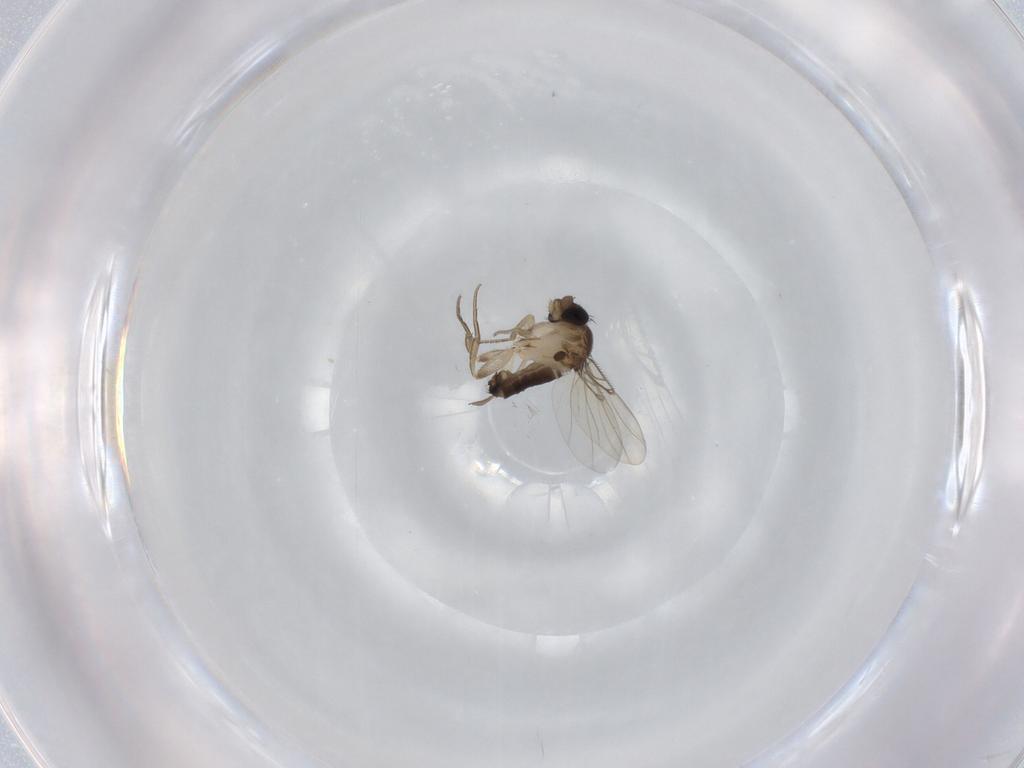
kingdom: Animalia
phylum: Arthropoda
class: Insecta
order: Diptera
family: Phoridae
